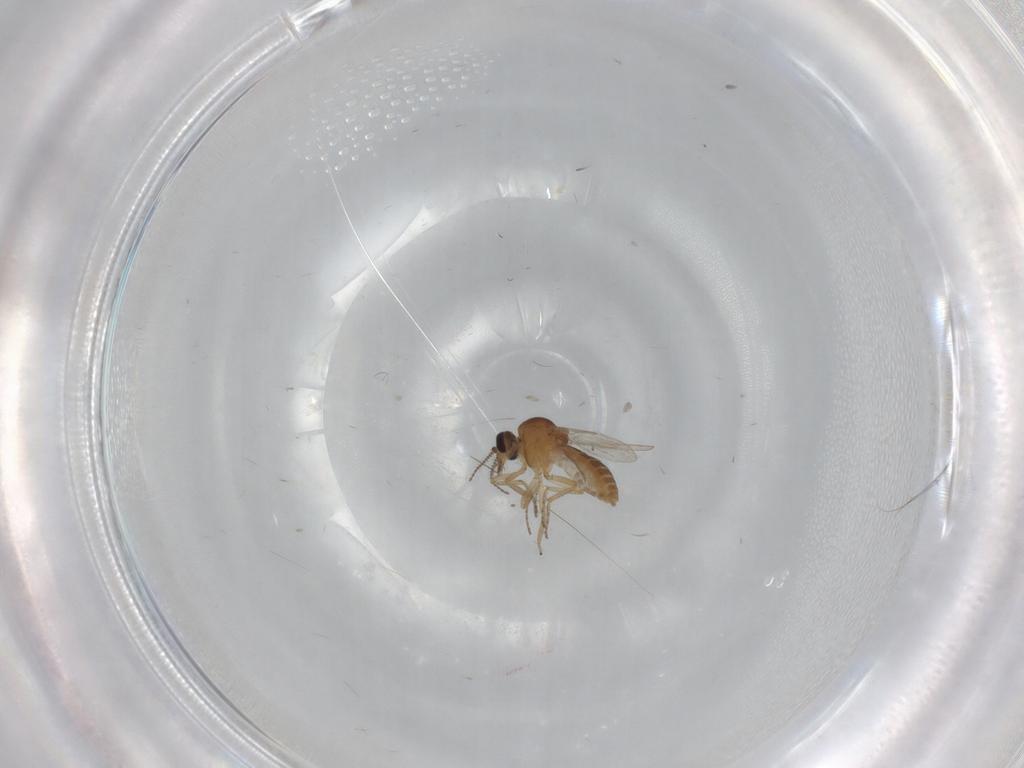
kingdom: Animalia
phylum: Arthropoda
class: Insecta
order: Diptera
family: Ceratopogonidae
